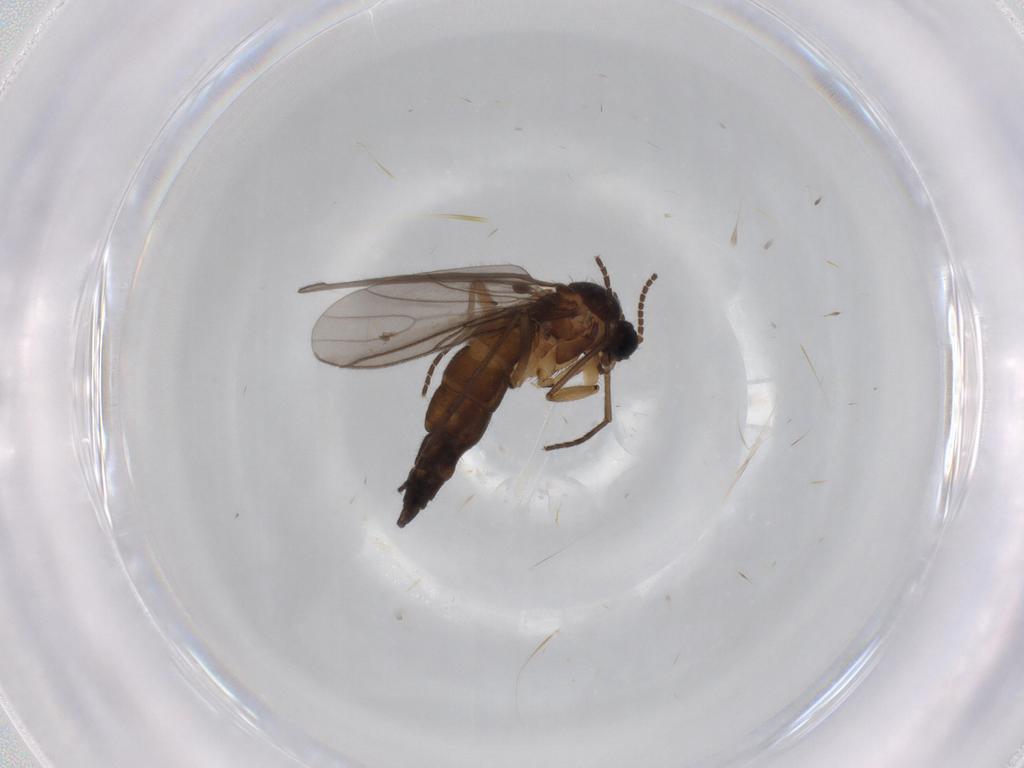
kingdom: Animalia
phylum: Arthropoda
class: Insecta
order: Diptera
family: Sciaridae
